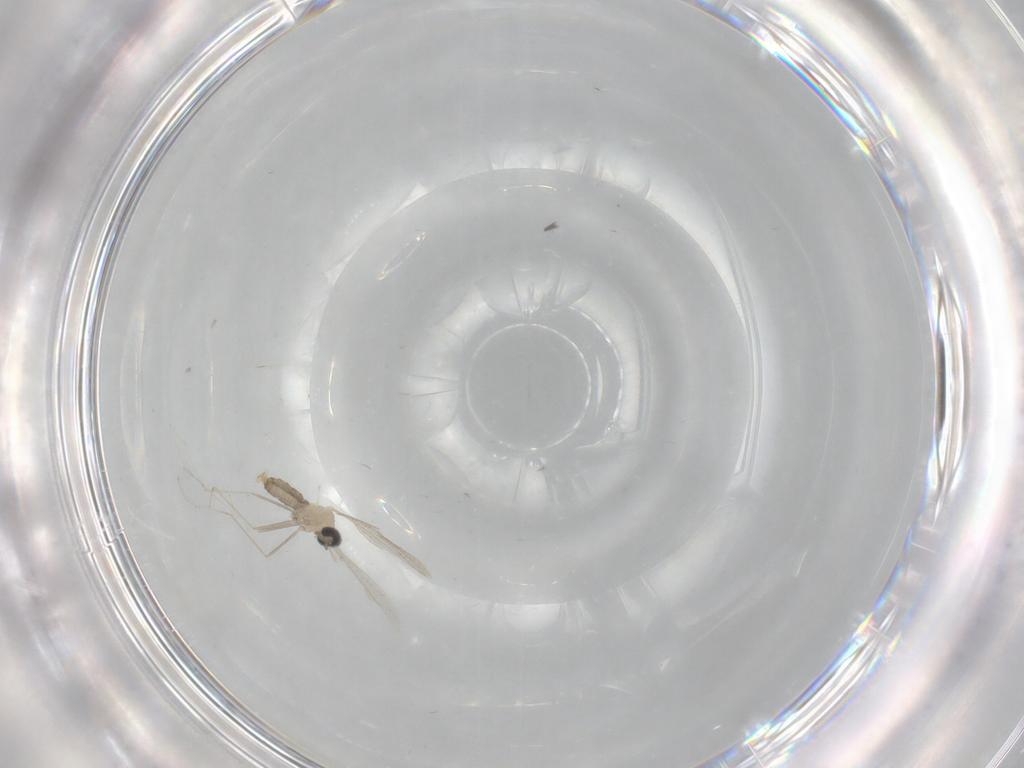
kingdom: Animalia
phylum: Arthropoda
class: Insecta
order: Diptera
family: Cecidomyiidae
